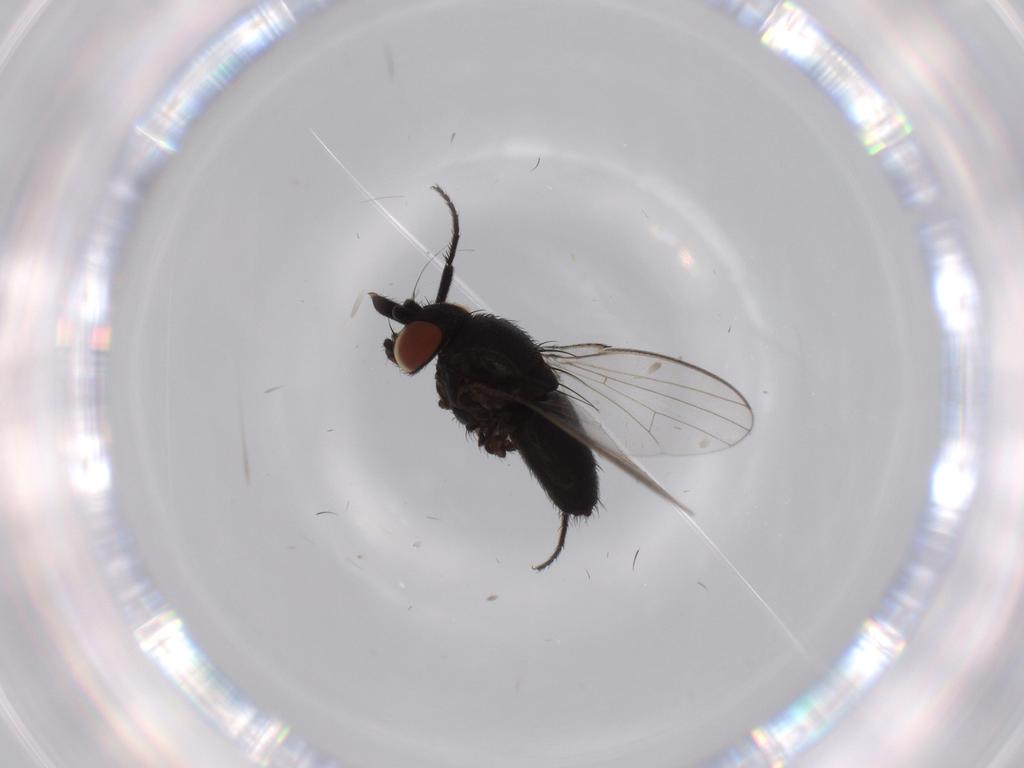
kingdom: Animalia
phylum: Arthropoda
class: Insecta
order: Diptera
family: Milichiidae
